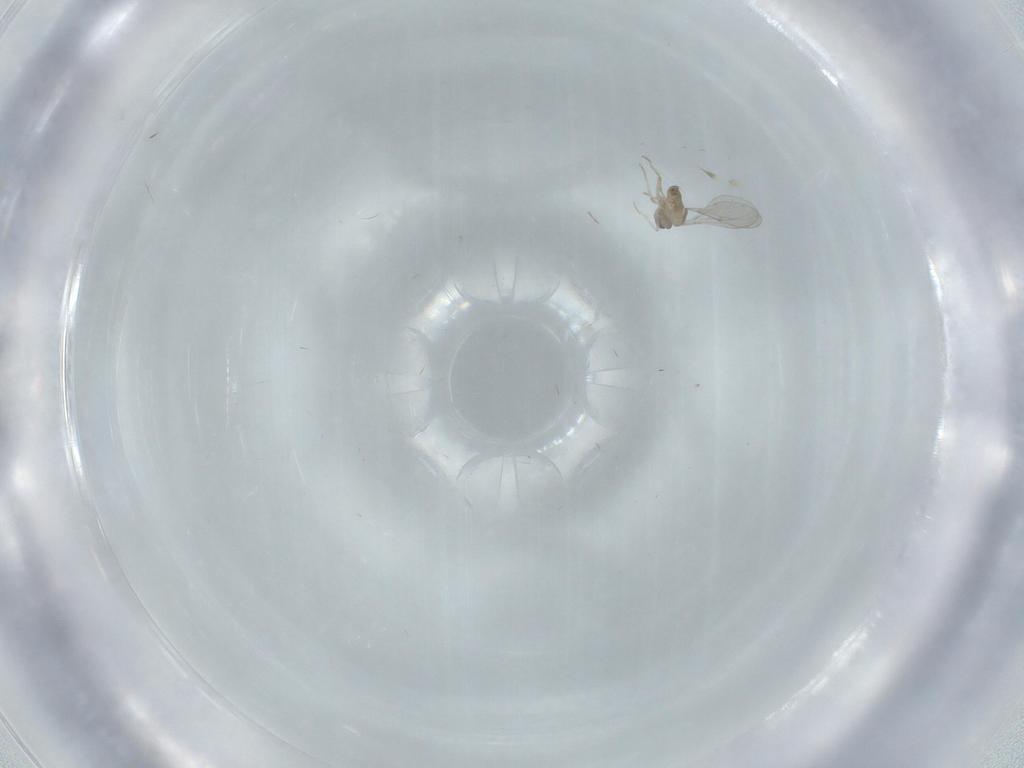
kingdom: Animalia
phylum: Arthropoda
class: Insecta
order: Diptera
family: Cecidomyiidae
